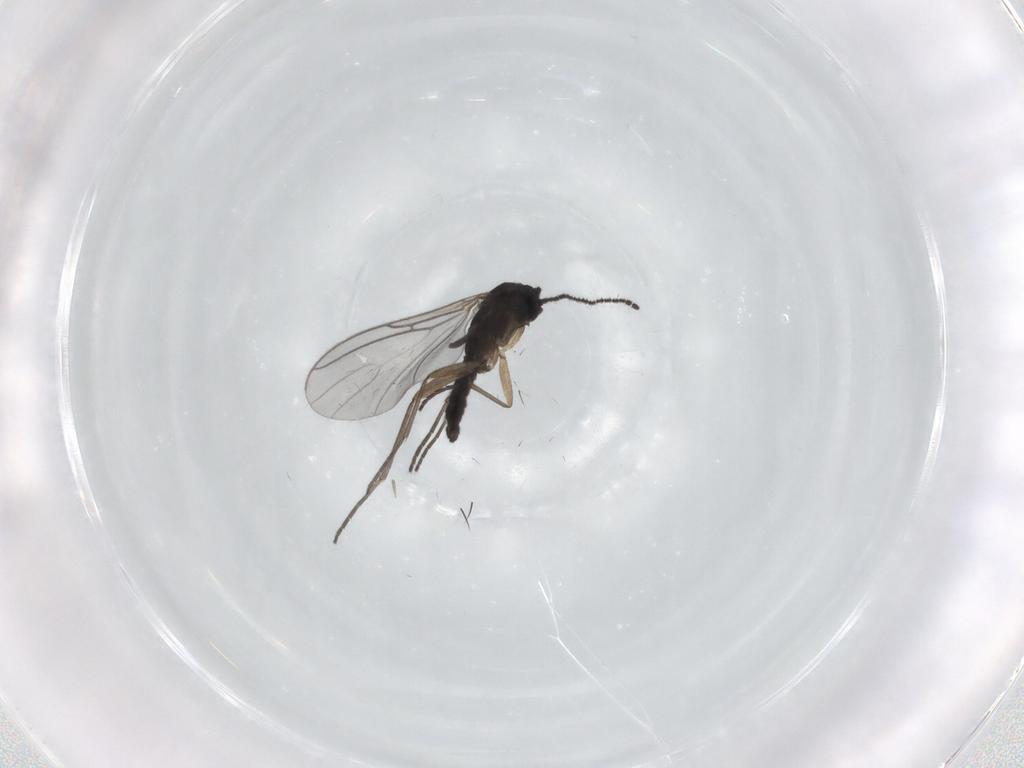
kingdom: Animalia
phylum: Arthropoda
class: Insecta
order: Diptera
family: Sciaridae
